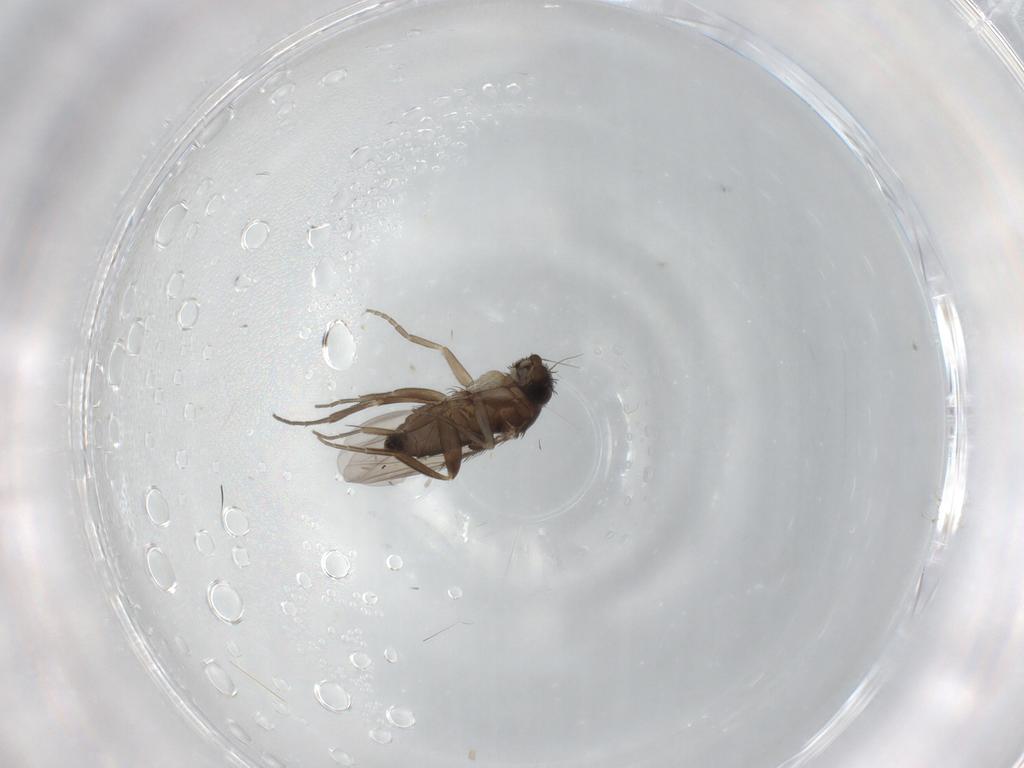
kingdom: Animalia
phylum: Arthropoda
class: Insecta
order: Diptera
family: Phoridae
